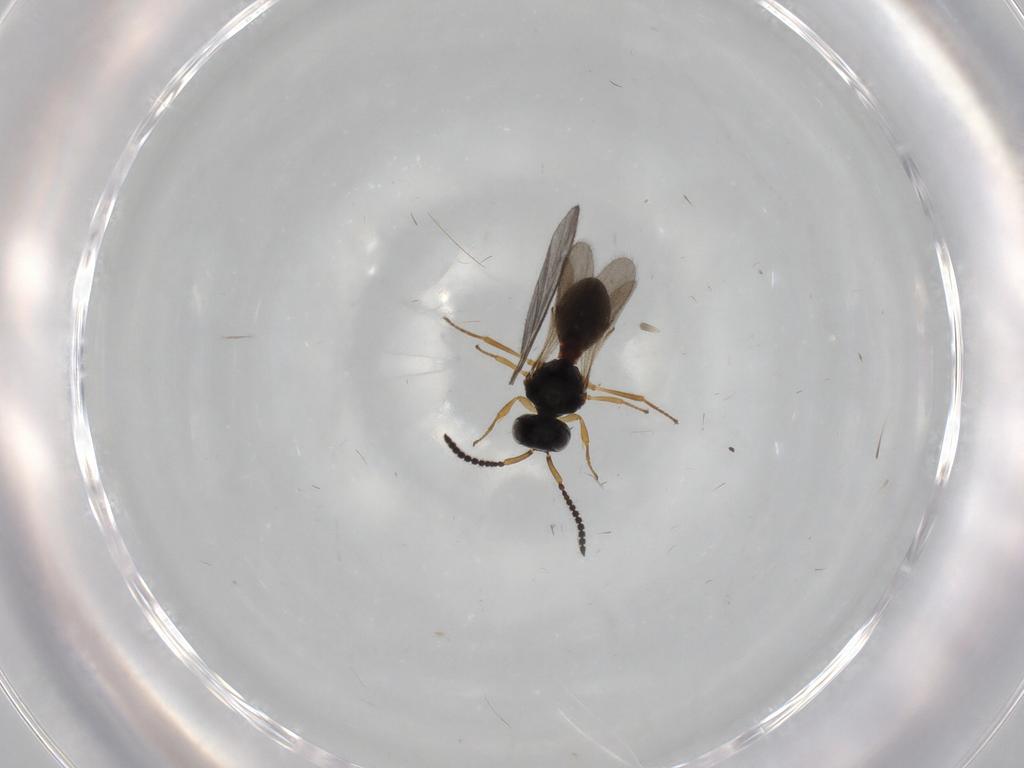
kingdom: Animalia
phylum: Arthropoda
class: Insecta
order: Hymenoptera
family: Scelionidae
